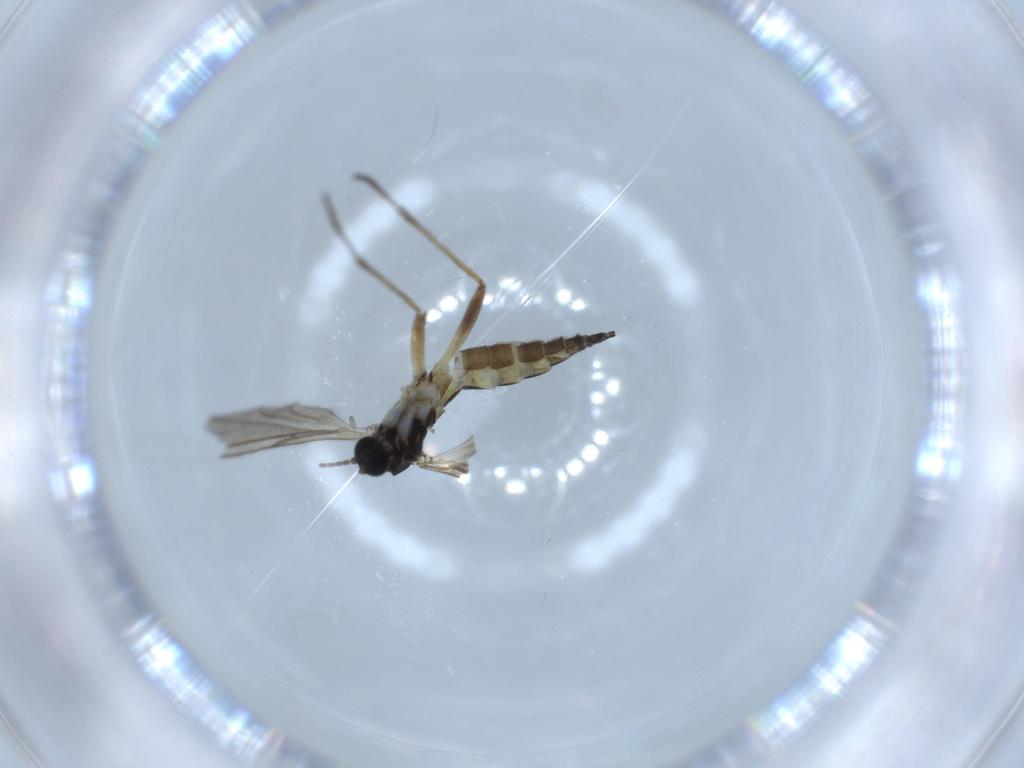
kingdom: Animalia
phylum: Arthropoda
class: Insecta
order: Diptera
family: Sciaridae
